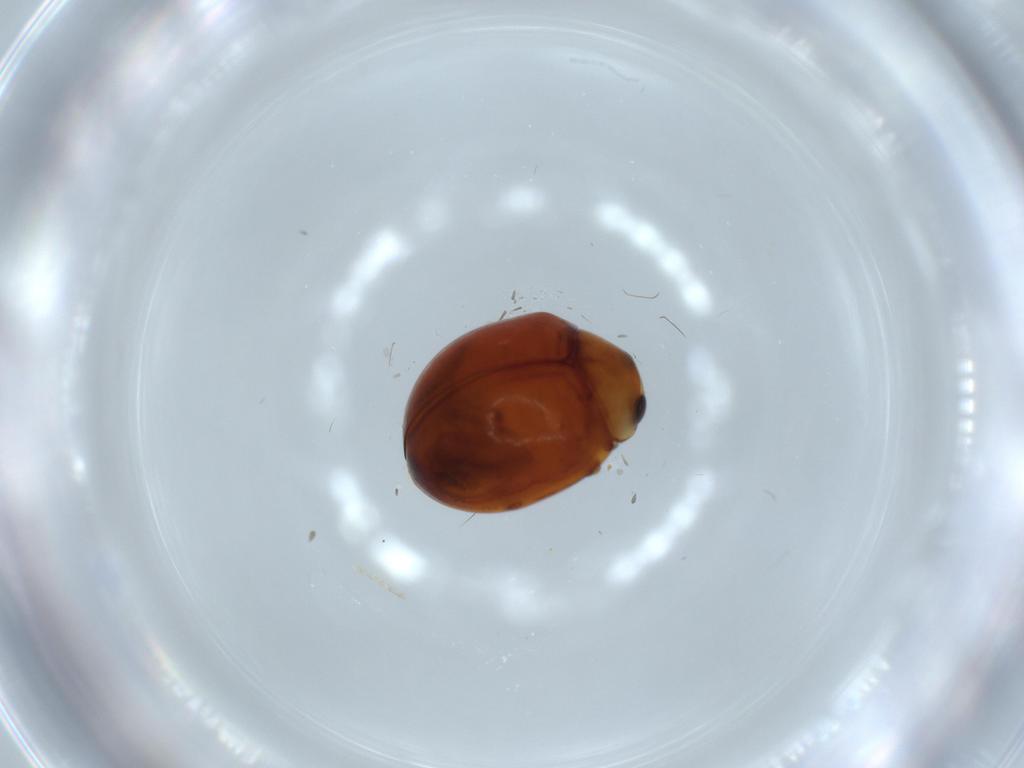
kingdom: Animalia
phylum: Arthropoda
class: Insecta
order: Coleoptera
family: Coccinellidae
